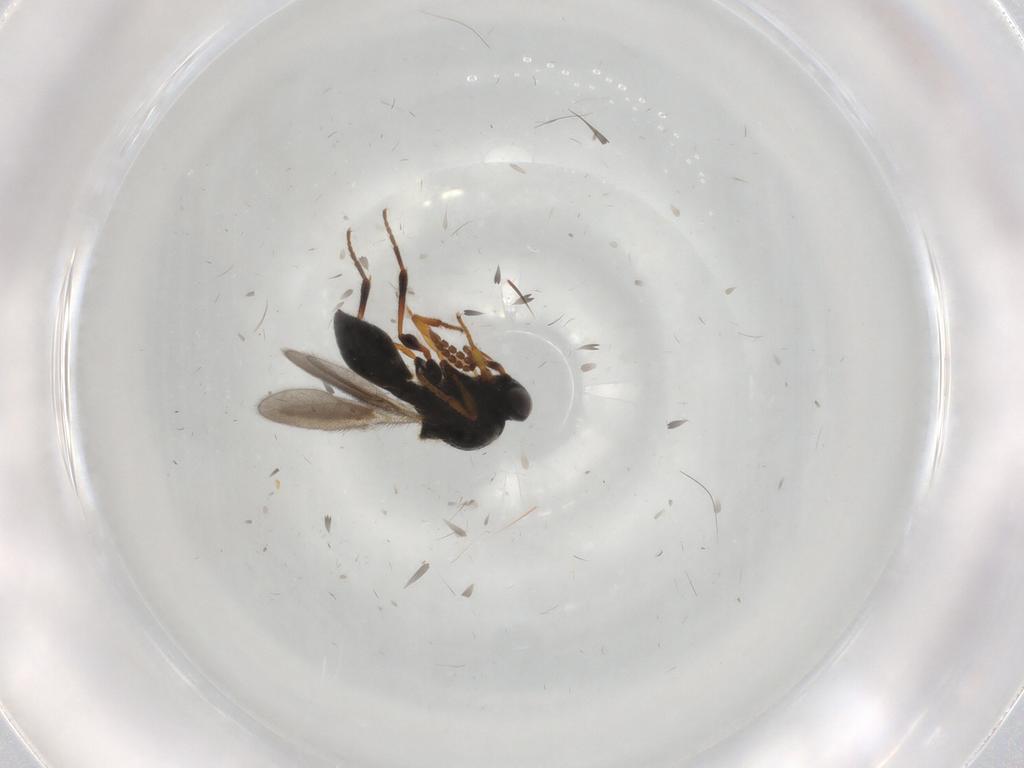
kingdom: Animalia
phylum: Arthropoda
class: Insecta
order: Hymenoptera
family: Platygastridae
